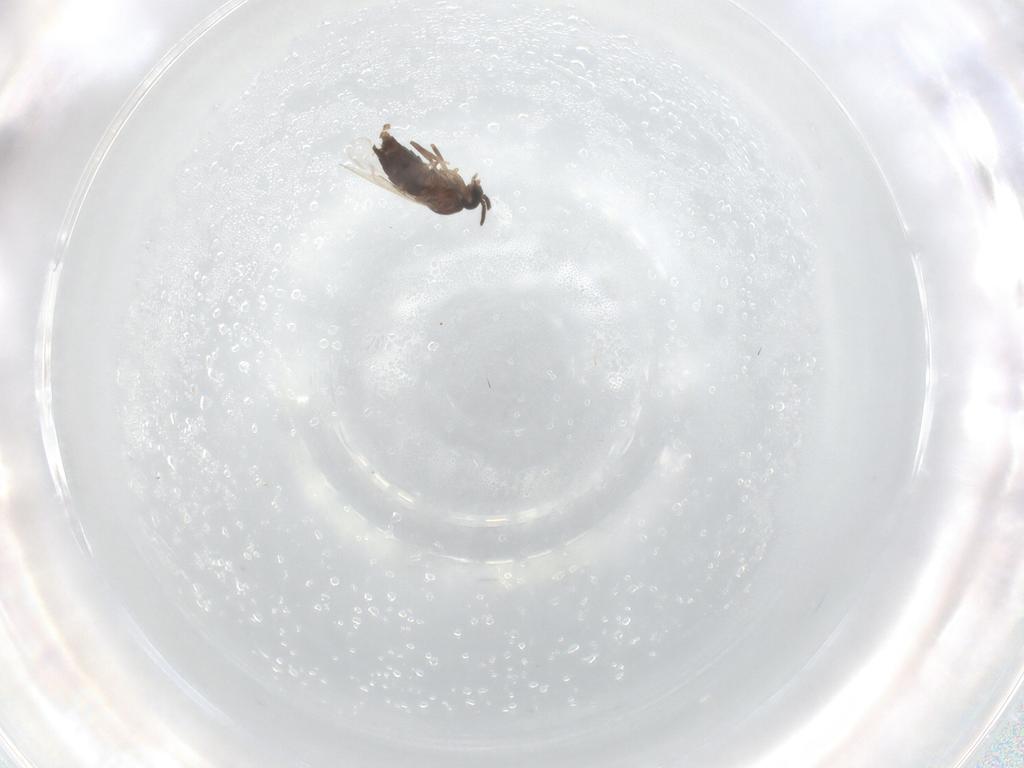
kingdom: Animalia
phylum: Arthropoda
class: Insecta
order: Diptera
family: Scatopsidae
